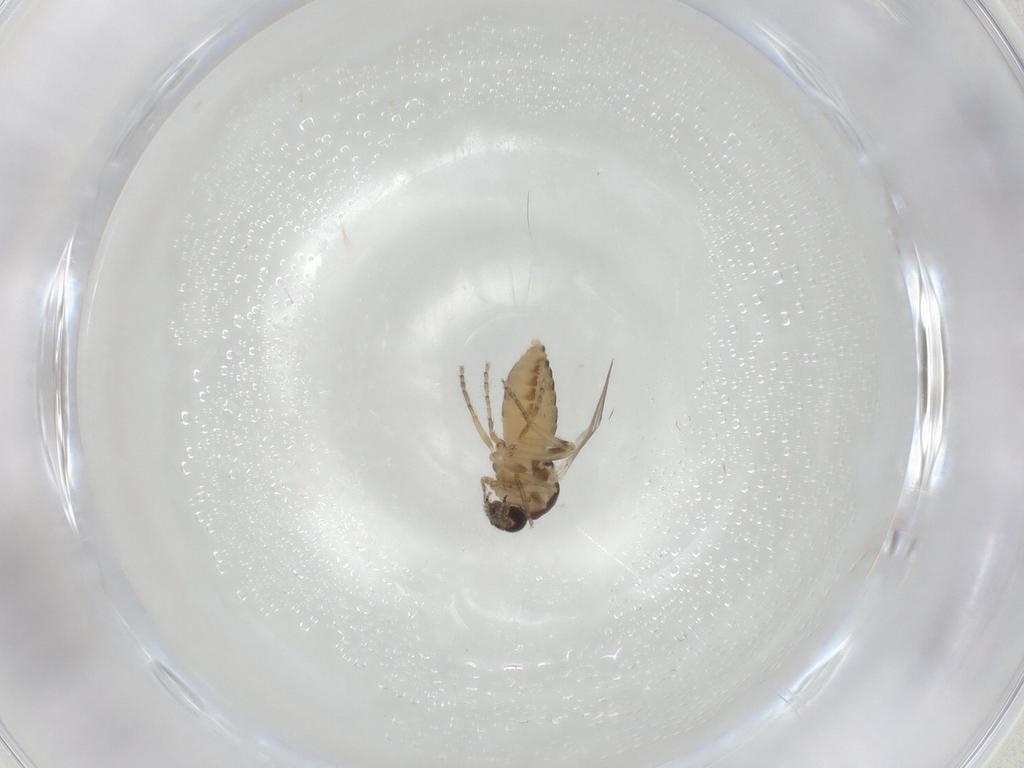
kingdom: Animalia
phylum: Arthropoda
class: Insecta
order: Diptera
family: Ceratopogonidae
